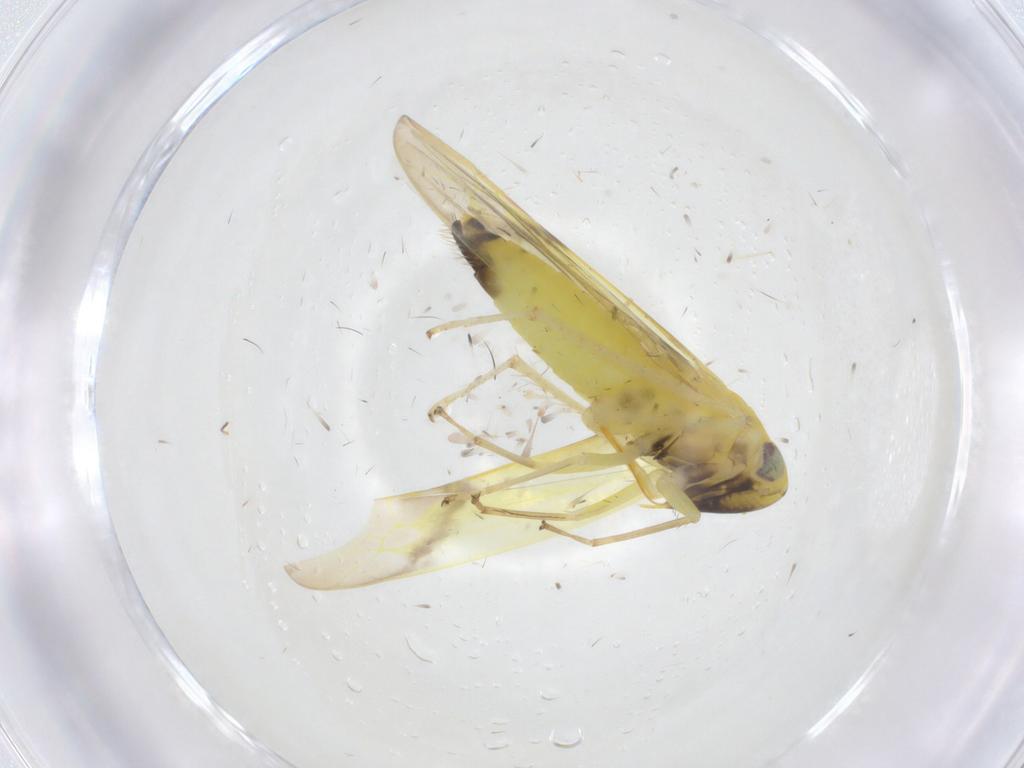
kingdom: Animalia
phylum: Arthropoda
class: Insecta
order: Hemiptera
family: Cicadellidae
